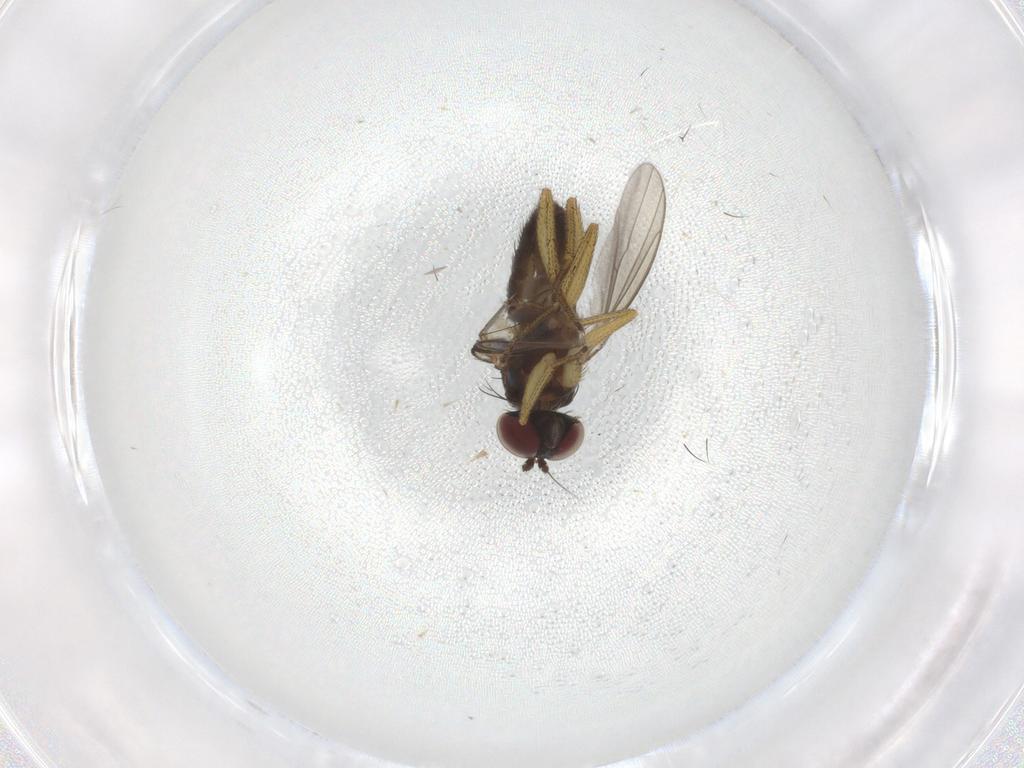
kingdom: Animalia
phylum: Arthropoda
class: Insecta
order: Diptera
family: Dolichopodidae
